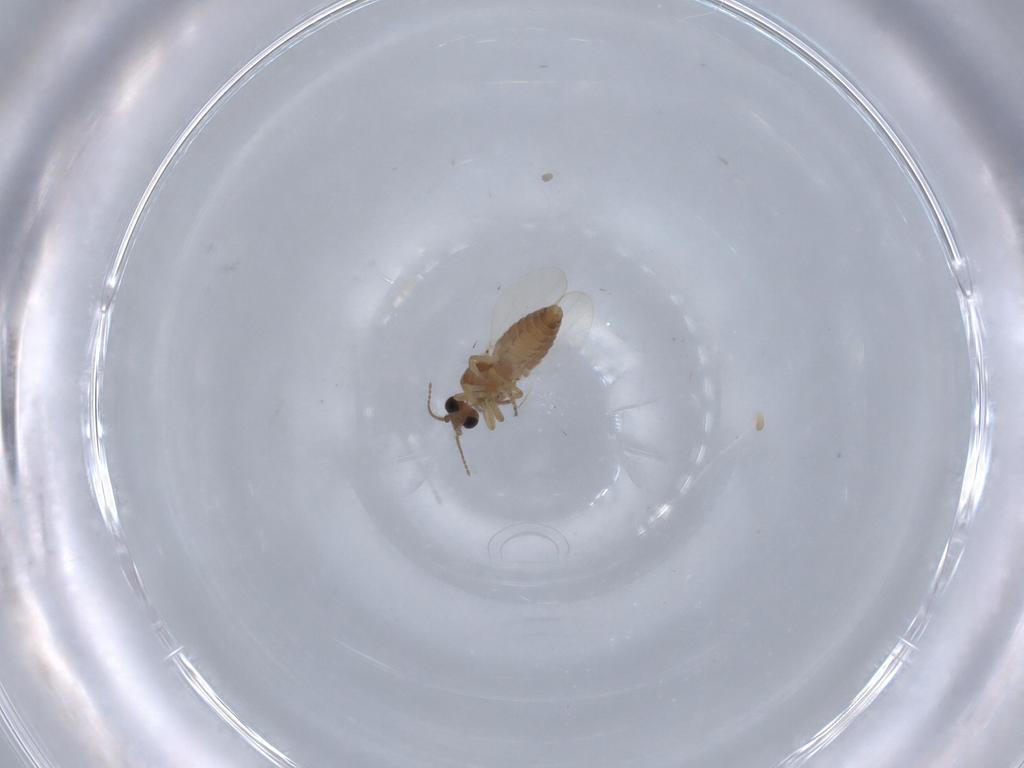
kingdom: Animalia
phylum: Arthropoda
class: Insecta
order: Diptera
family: Ceratopogonidae
